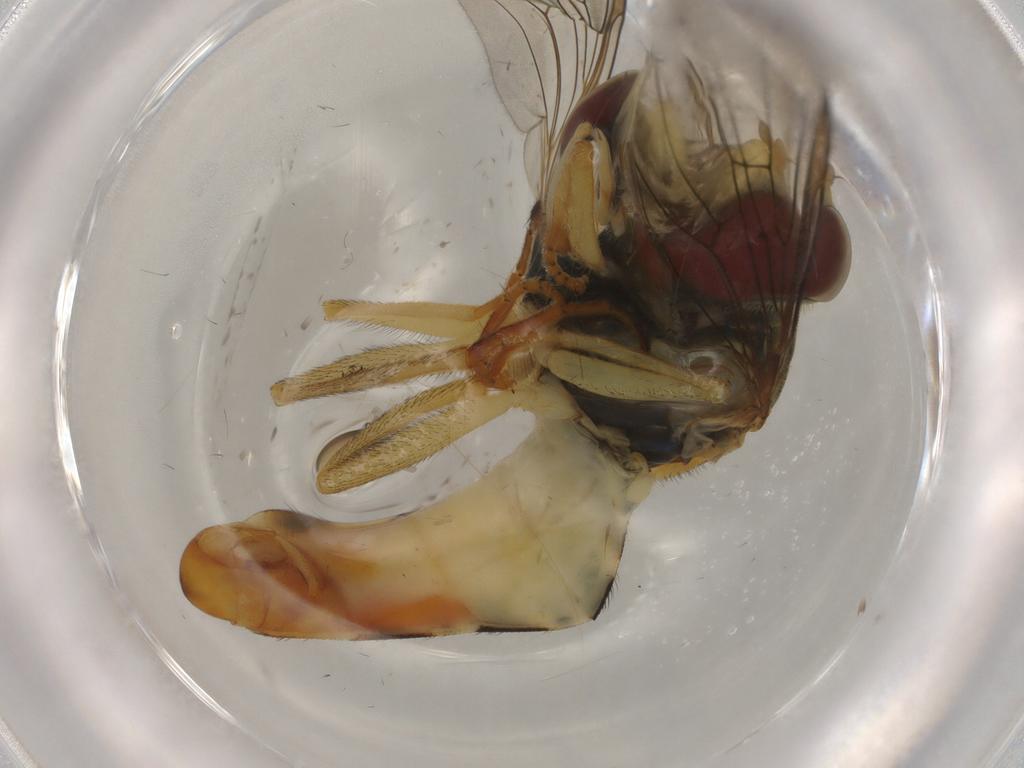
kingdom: Animalia
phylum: Arthropoda
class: Insecta
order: Diptera
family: Syrphidae
